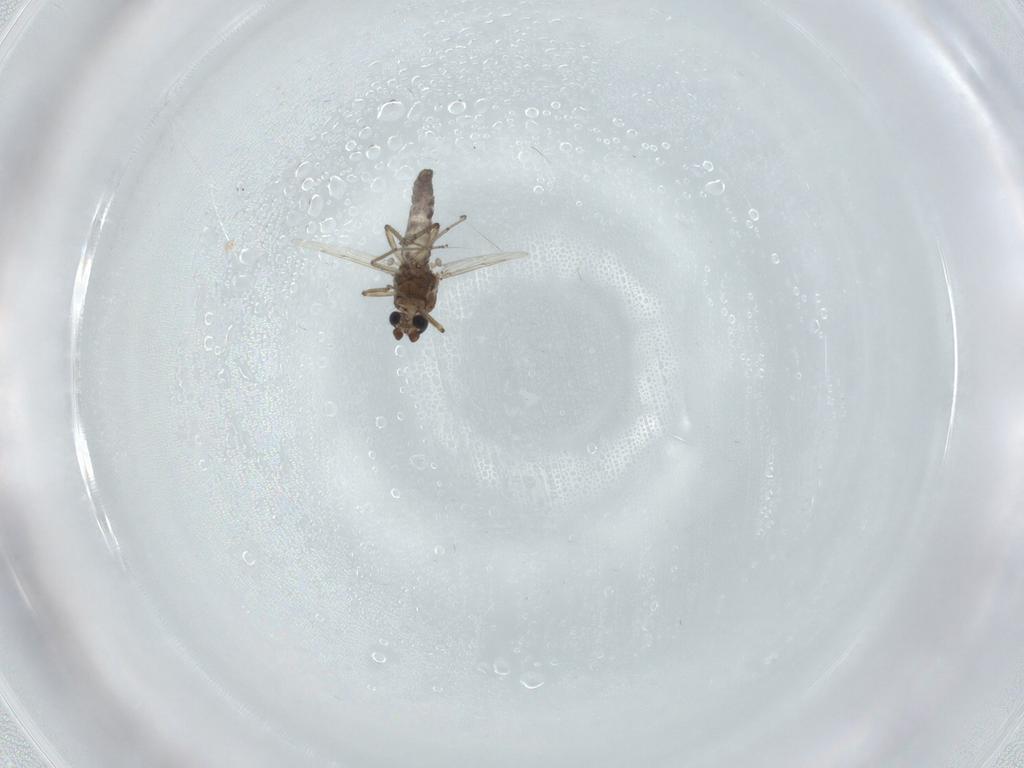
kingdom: Animalia
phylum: Arthropoda
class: Insecta
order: Diptera
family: Ceratopogonidae
